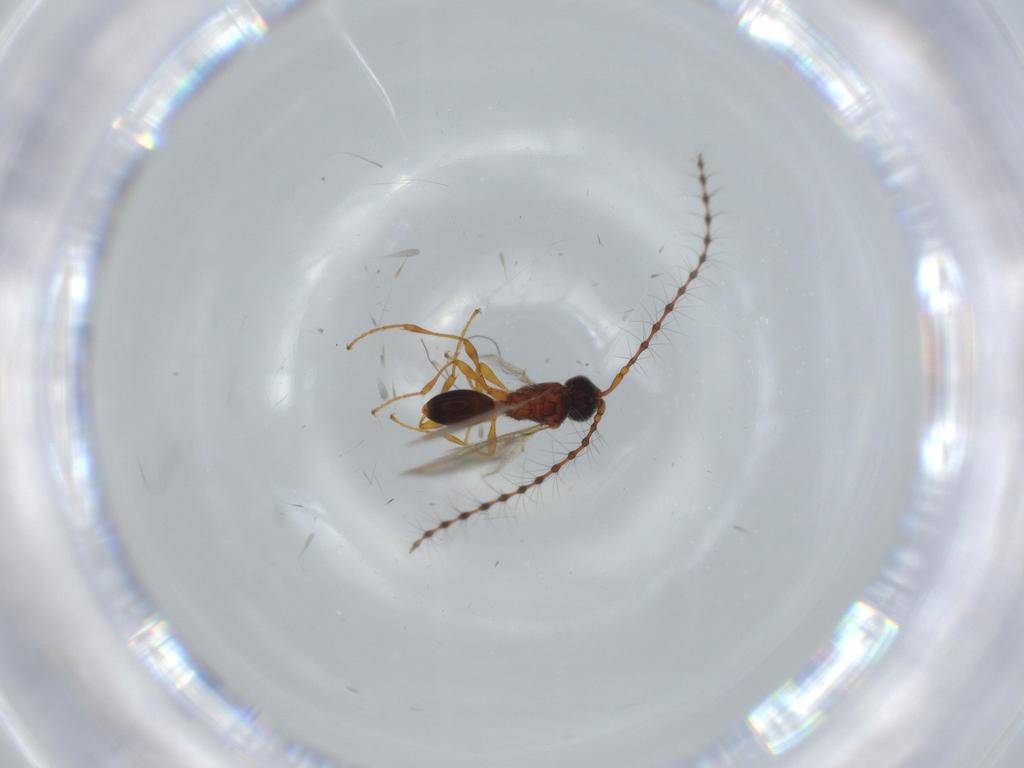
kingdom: Animalia
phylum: Arthropoda
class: Insecta
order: Hymenoptera
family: Diapriidae
